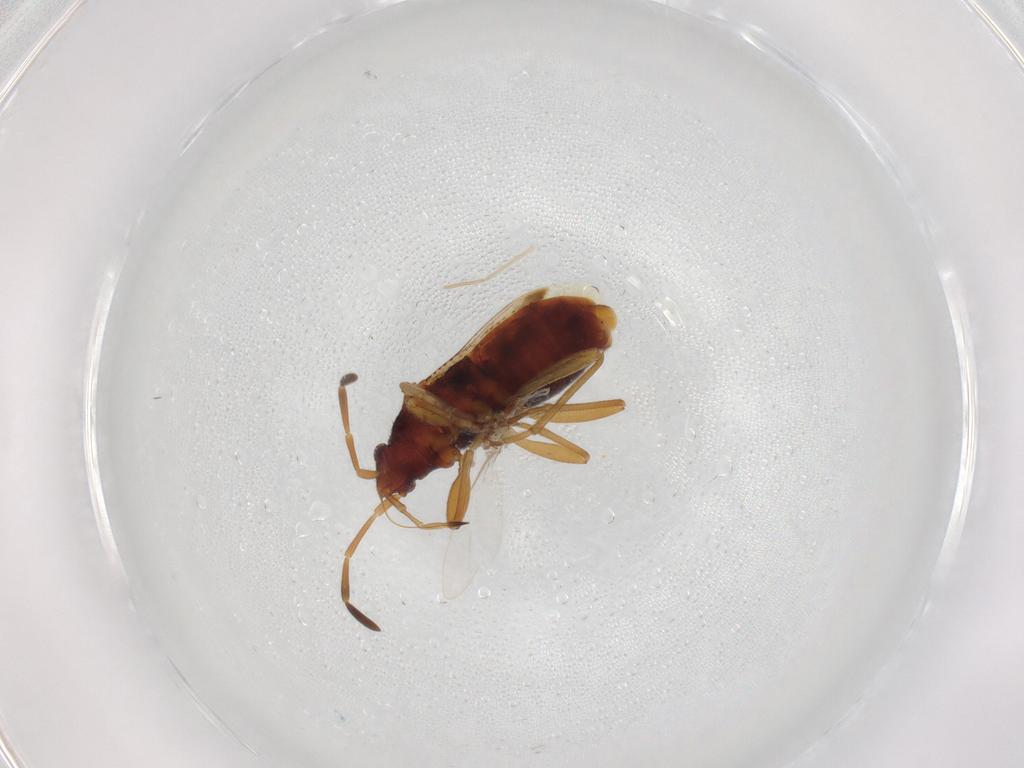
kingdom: Animalia
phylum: Arthropoda
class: Insecta
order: Hemiptera
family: Rhyparochromidae
